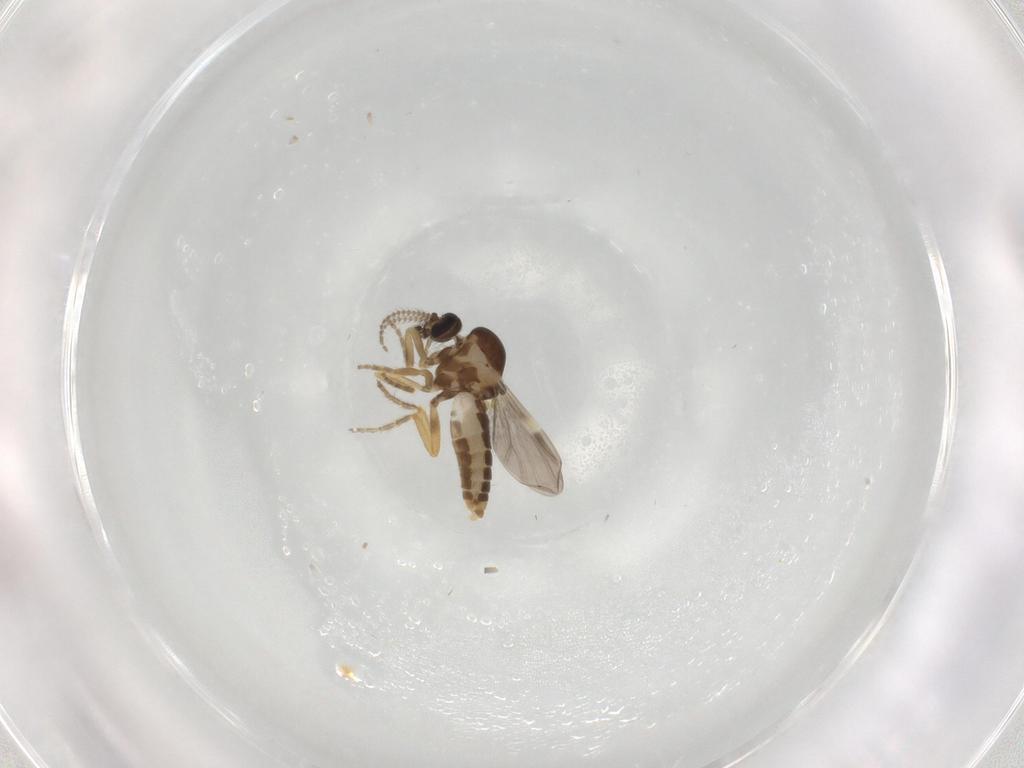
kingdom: Animalia
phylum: Arthropoda
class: Insecta
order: Diptera
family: Ceratopogonidae
